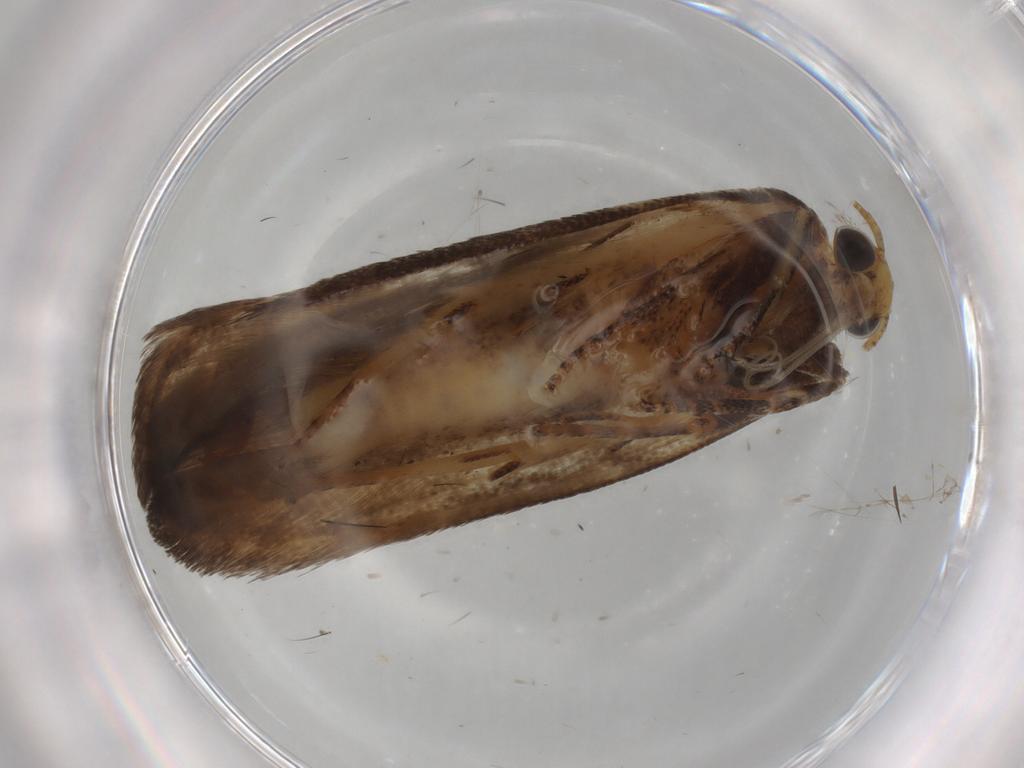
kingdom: Animalia
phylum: Arthropoda
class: Insecta
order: Lepidoptera
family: Gelechiidae
